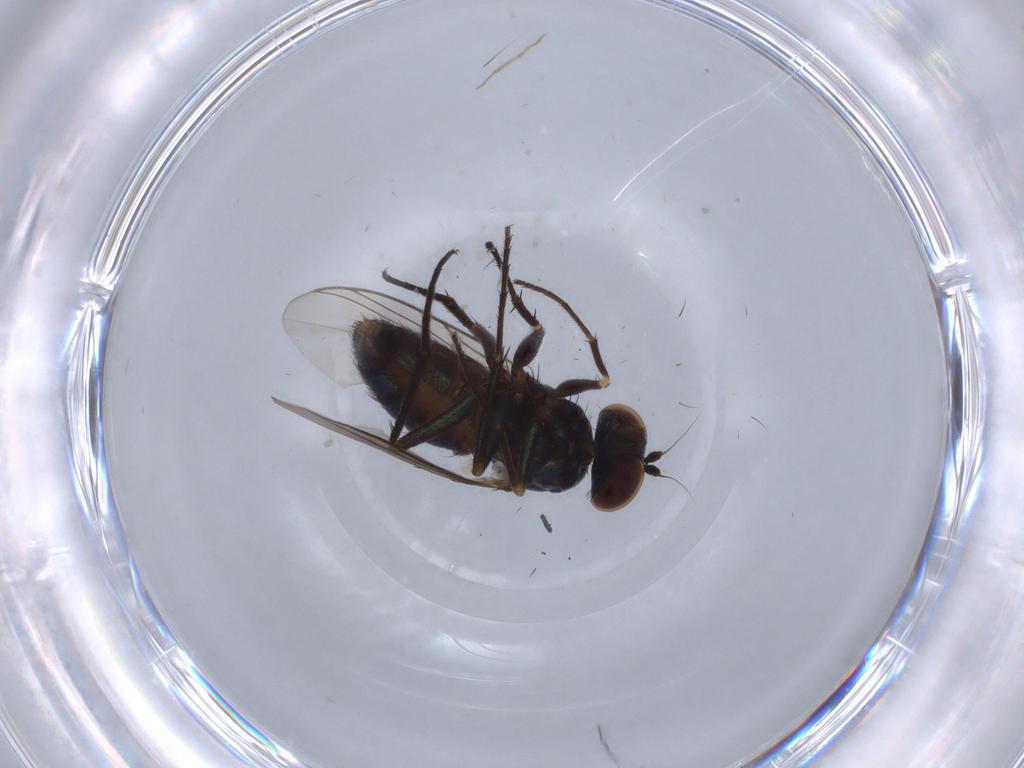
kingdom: Animalia
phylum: Arthropoda
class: Insecta
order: Diptera
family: Dolichopodidae
